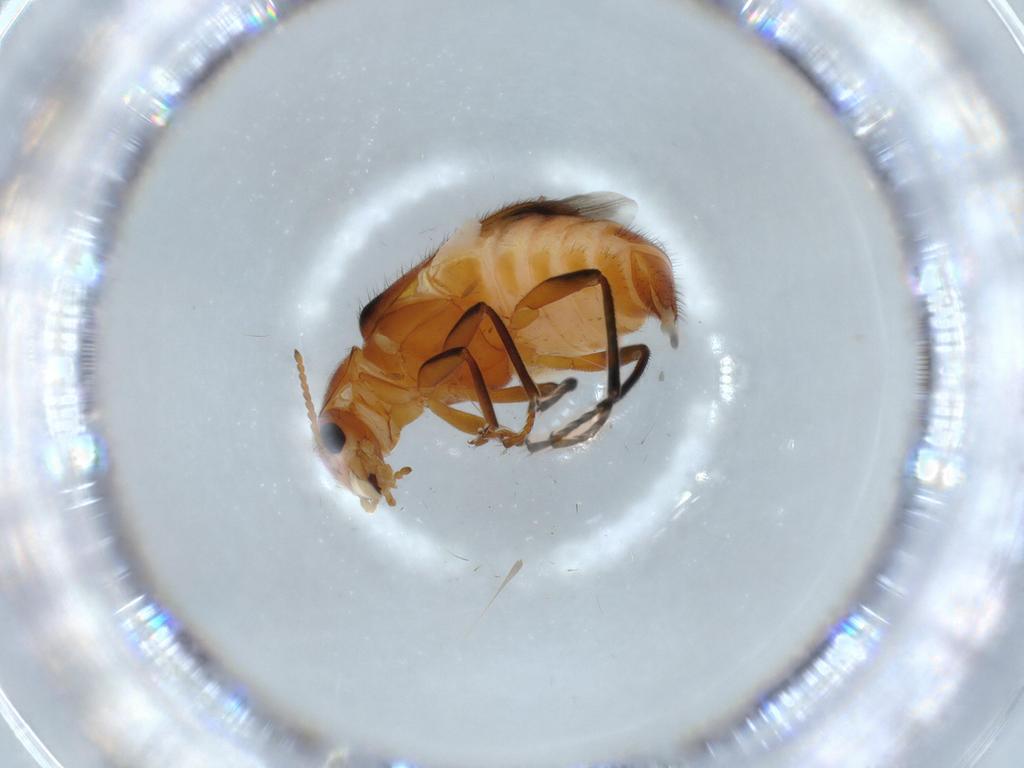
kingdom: Animalia
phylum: Arthropoda
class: Insecta
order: Coleoptera
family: Melyridae
